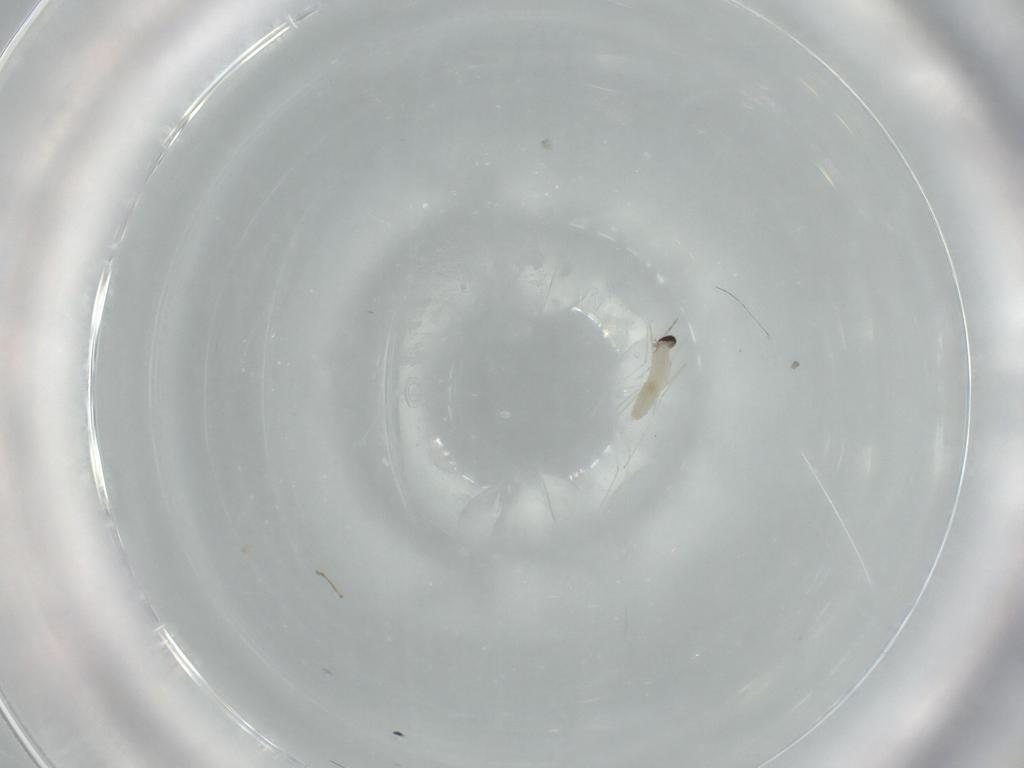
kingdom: Animalia
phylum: Arthropoda
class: Insecta
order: Diptera
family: Cecidomyiidae
